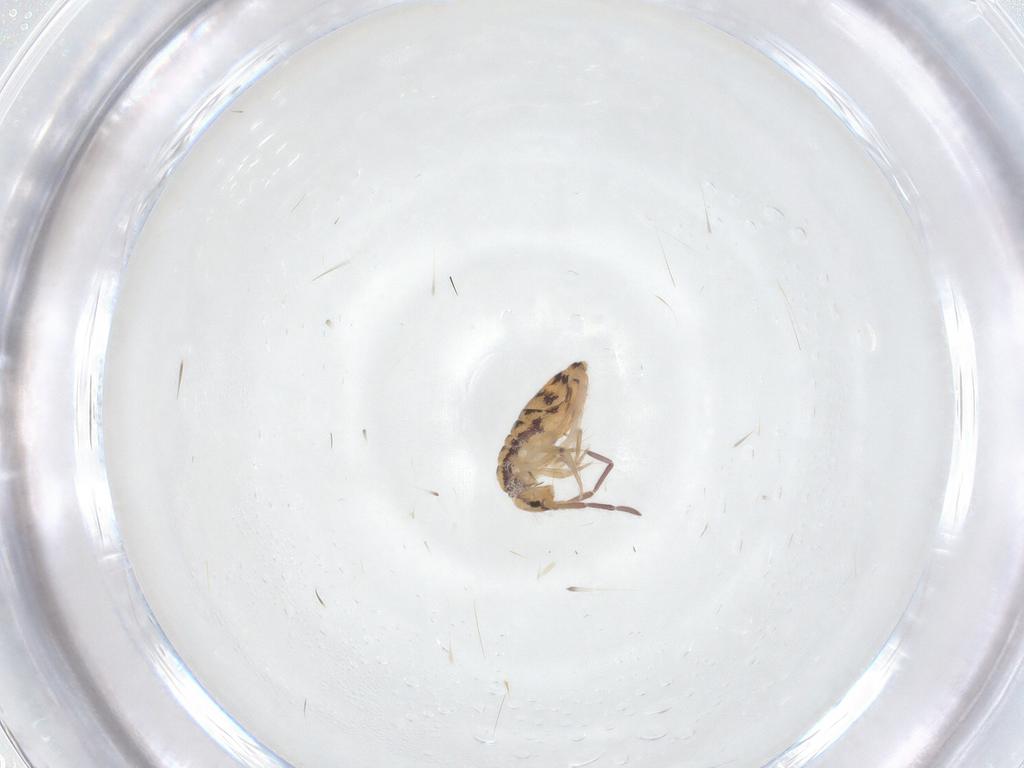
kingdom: Animalia
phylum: Arthropoda
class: Collembola
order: Entomobryomorpha
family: Entomobryidae
